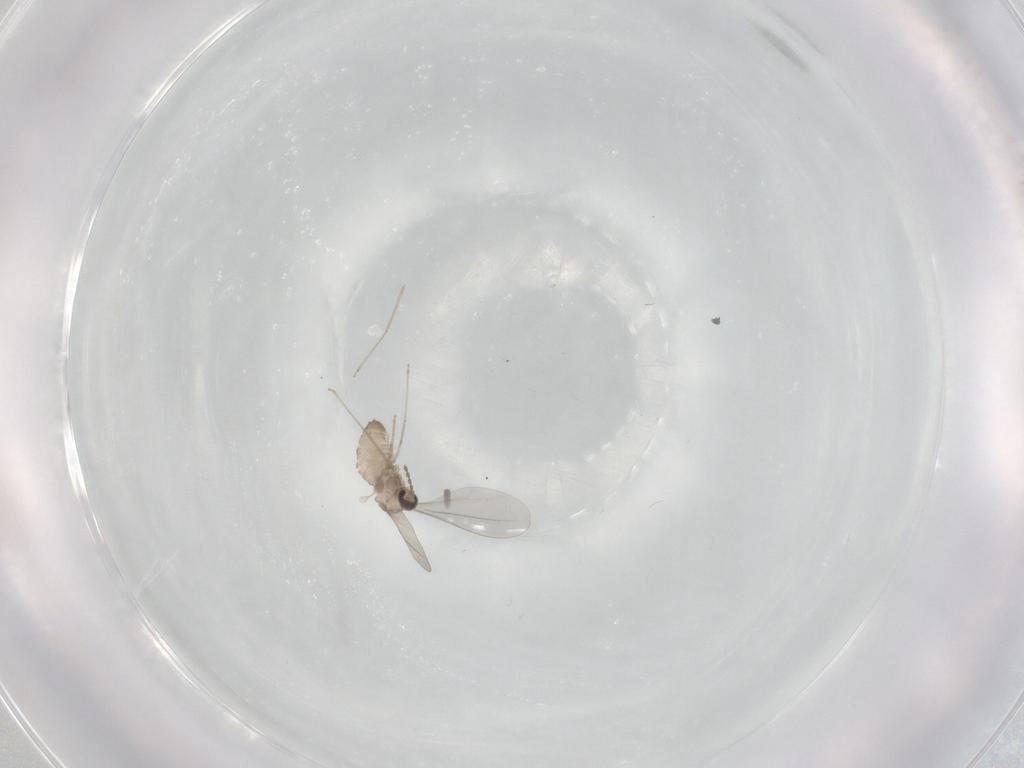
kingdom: Animalia
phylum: Arthropoda
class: Insecta
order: Diptera
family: Cecidomyiidae
